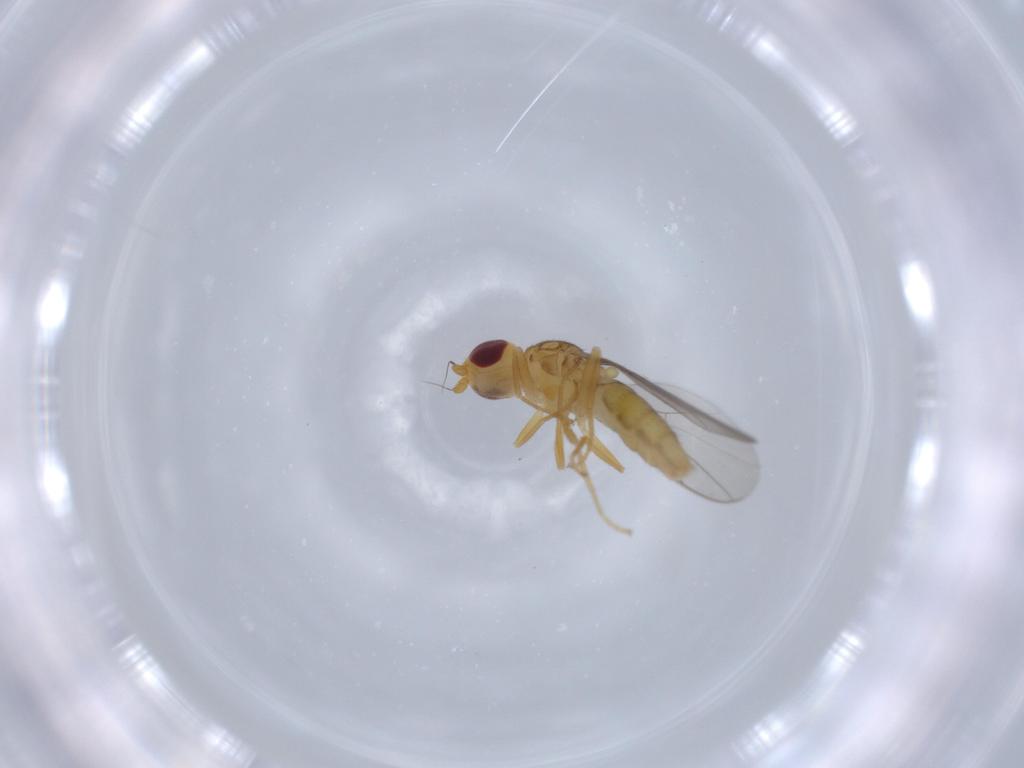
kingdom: Animalia
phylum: Arthropoda
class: Insecta
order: Diptera
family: Chloropidae
